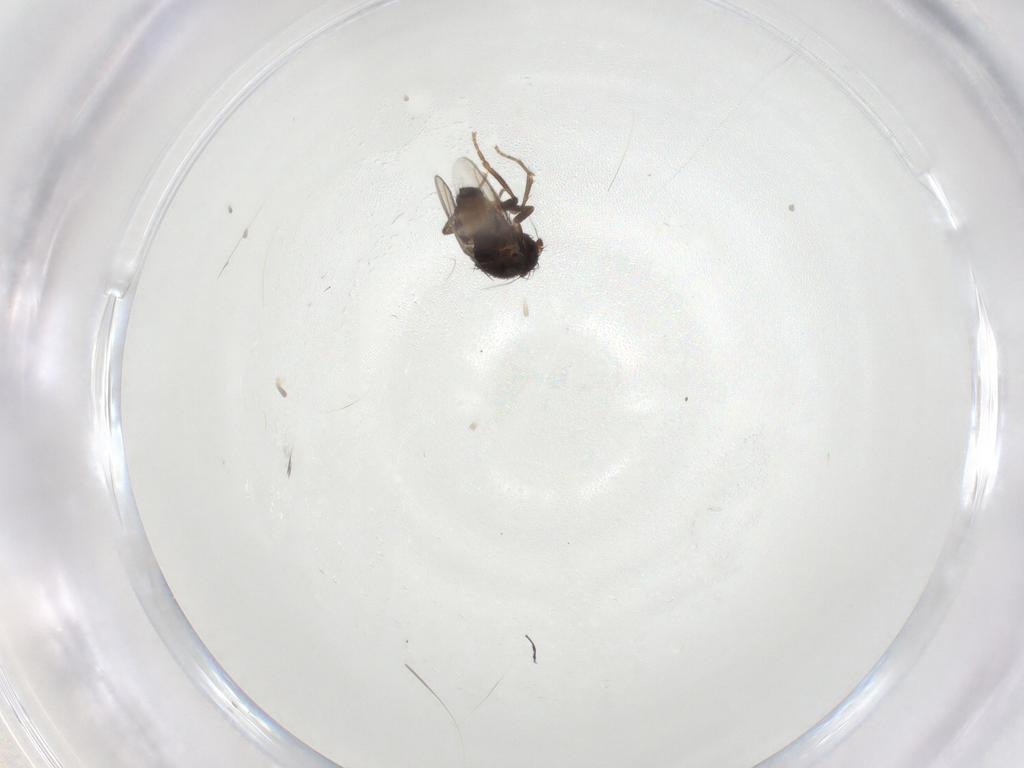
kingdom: Animalia
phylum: Arthropoda
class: Insecta
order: Diptera
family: Sphaeroceridae
